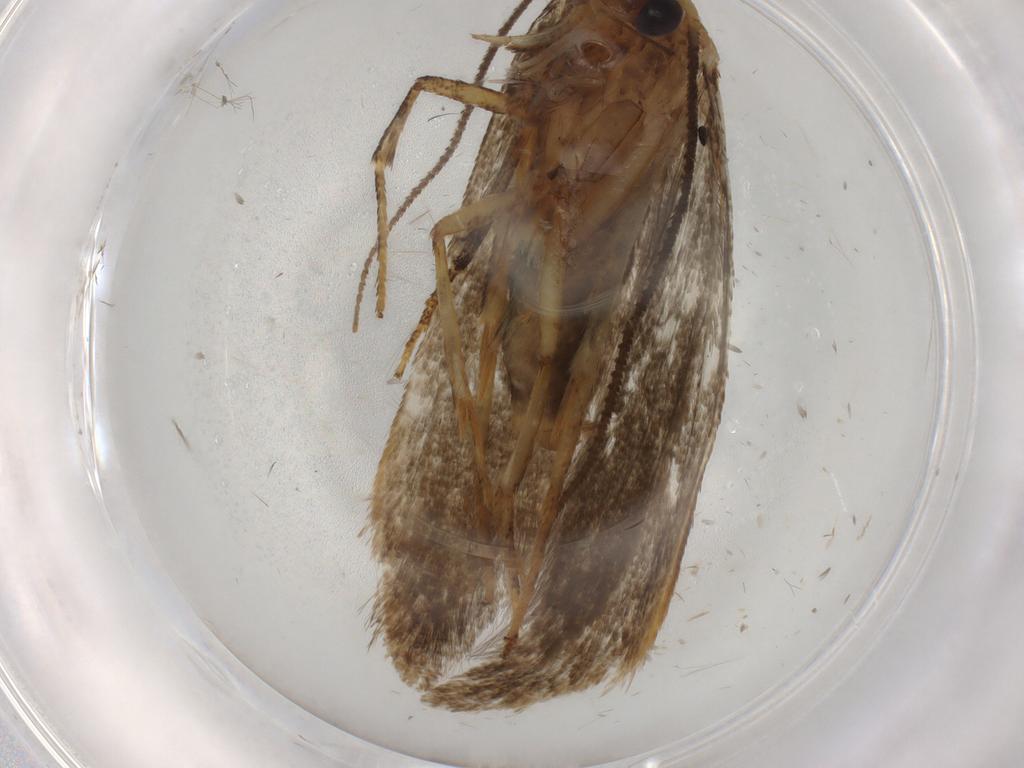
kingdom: Animalia
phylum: Arthropoda
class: Insecta
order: Lepidoptera
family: Blastobasidae
